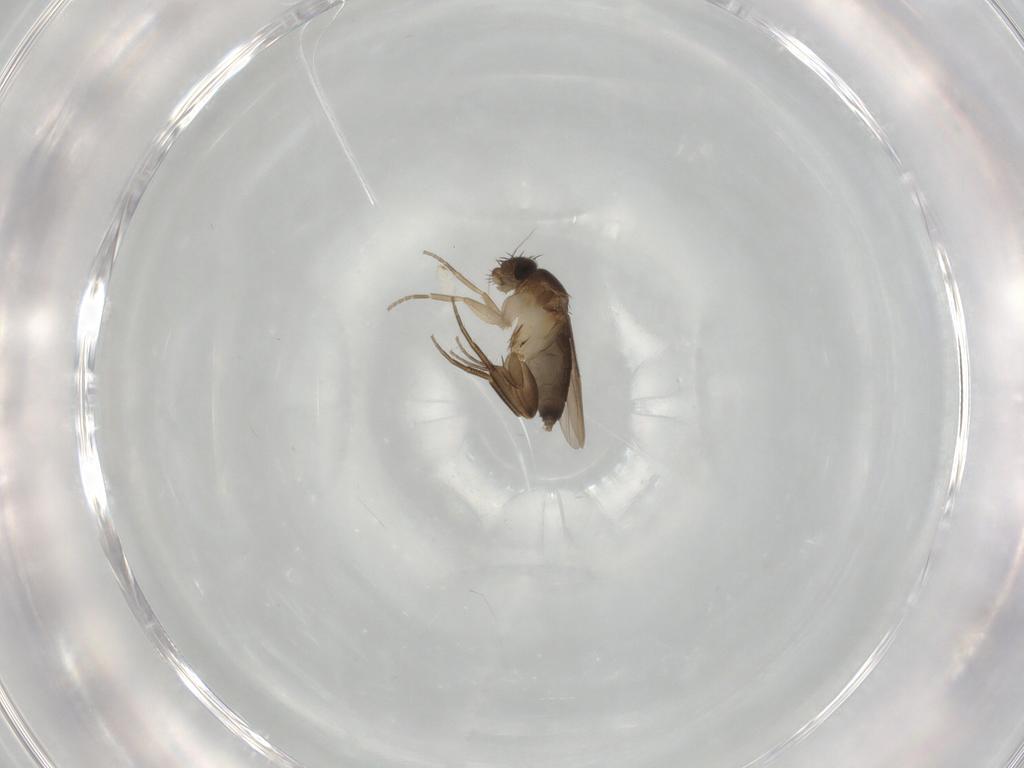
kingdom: Animalia
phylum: Arthropoda
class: Insecta
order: Diptera
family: Phoridae
